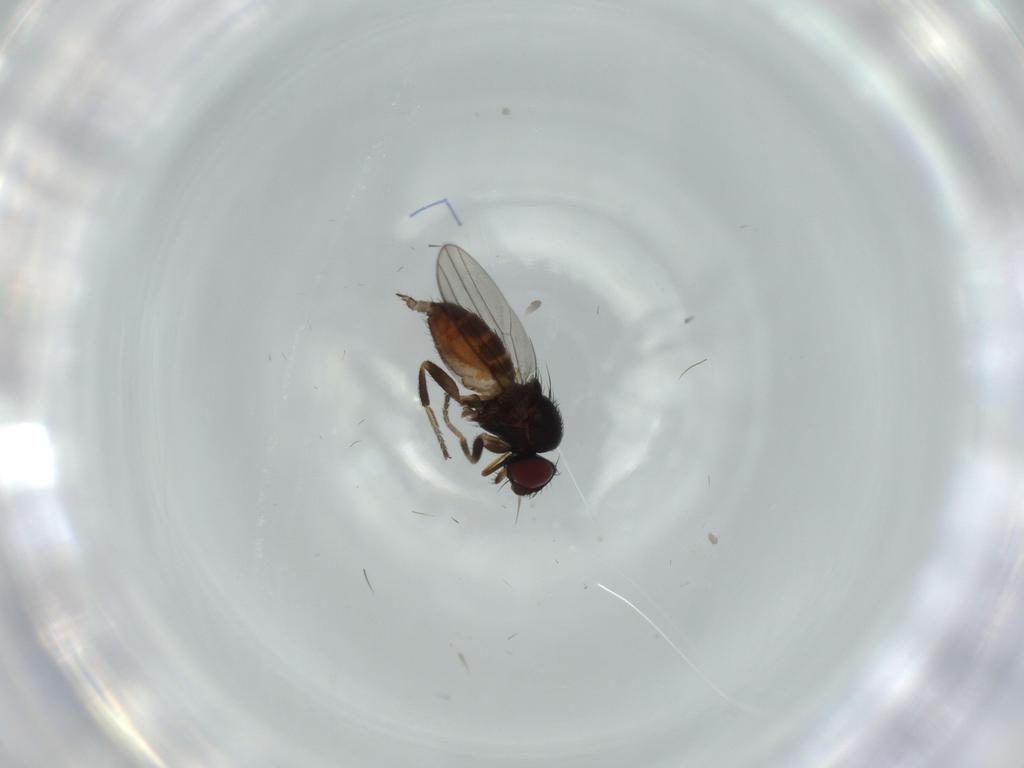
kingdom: Animalia
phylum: Arthropoda
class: Insecta
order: Diptera
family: Milichiidae
